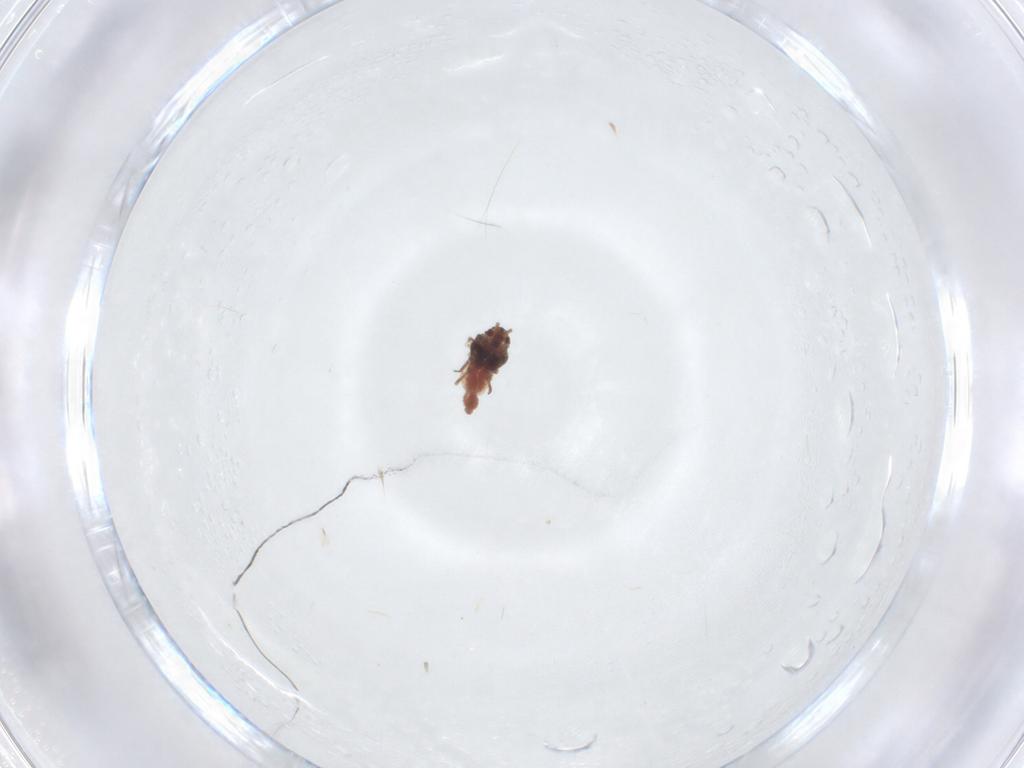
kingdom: Animalia
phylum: Arthropoda
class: Insecta
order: Hemiptera
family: Aleyrodidae
